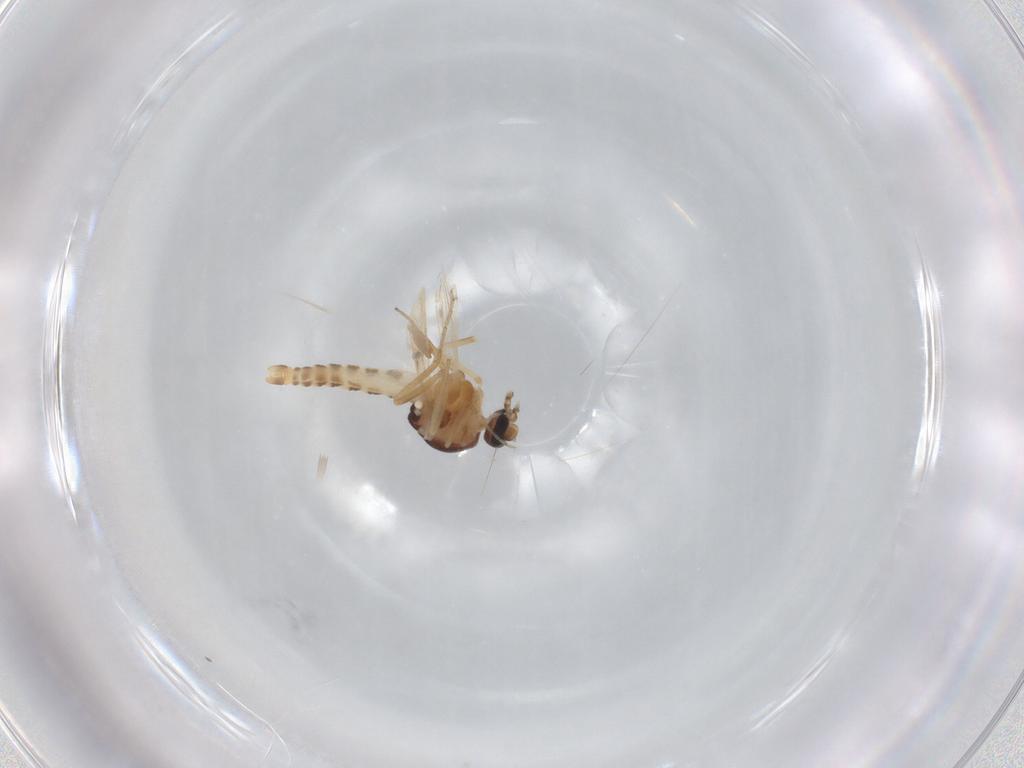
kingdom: Animalia
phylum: Arthropoda
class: Insecta
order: Diptera
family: Ceratopogonidae
